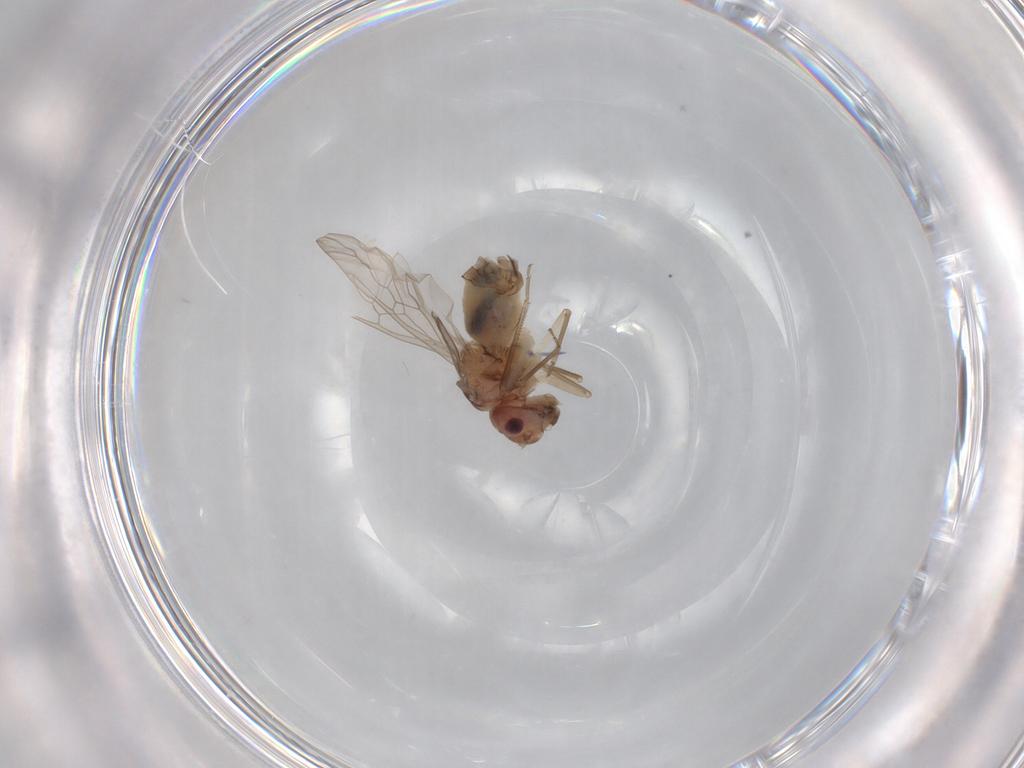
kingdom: Animalia
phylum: Arthropoda
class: Insecta
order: Psocodea
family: Peripsocidae
